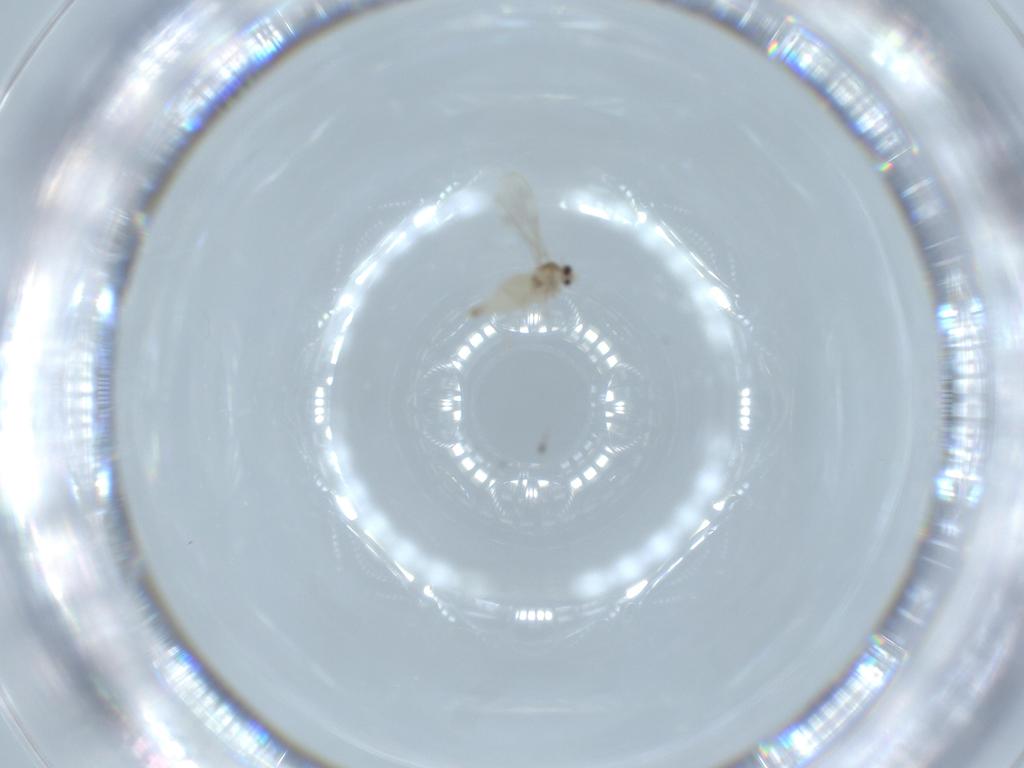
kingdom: Animalia
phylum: Arthropoda
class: Insecta
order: Diptera
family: Cecidomyiidae
